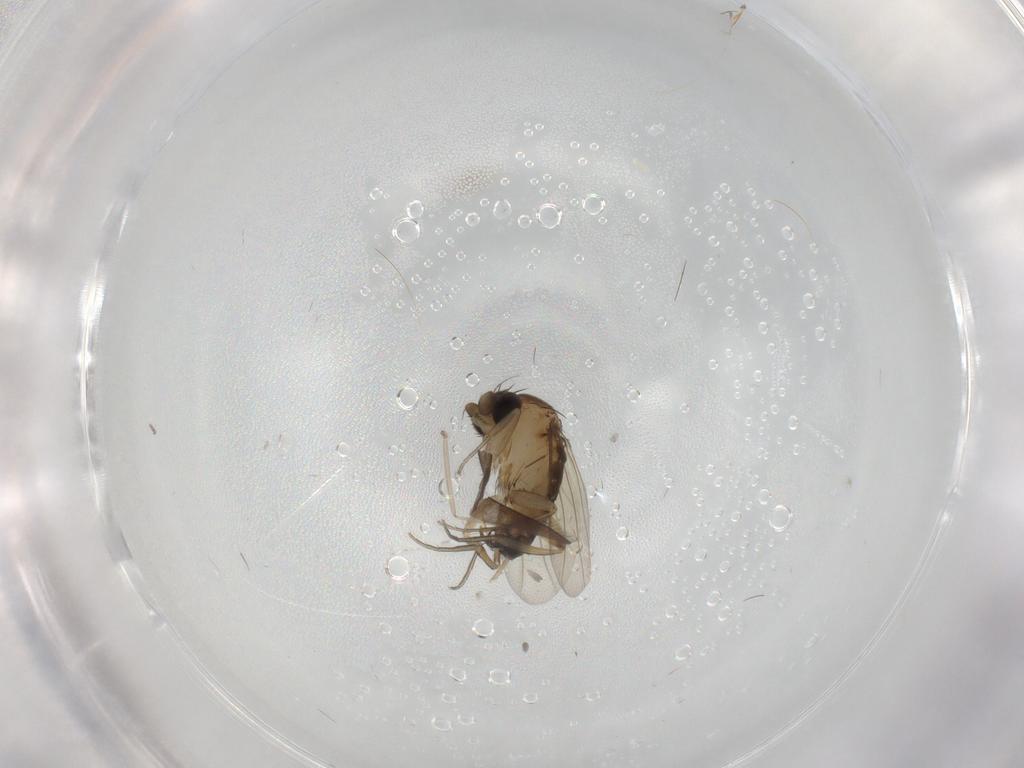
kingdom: Animalia
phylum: Arthropoda
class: Insecta
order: Diptera
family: Phoridae
